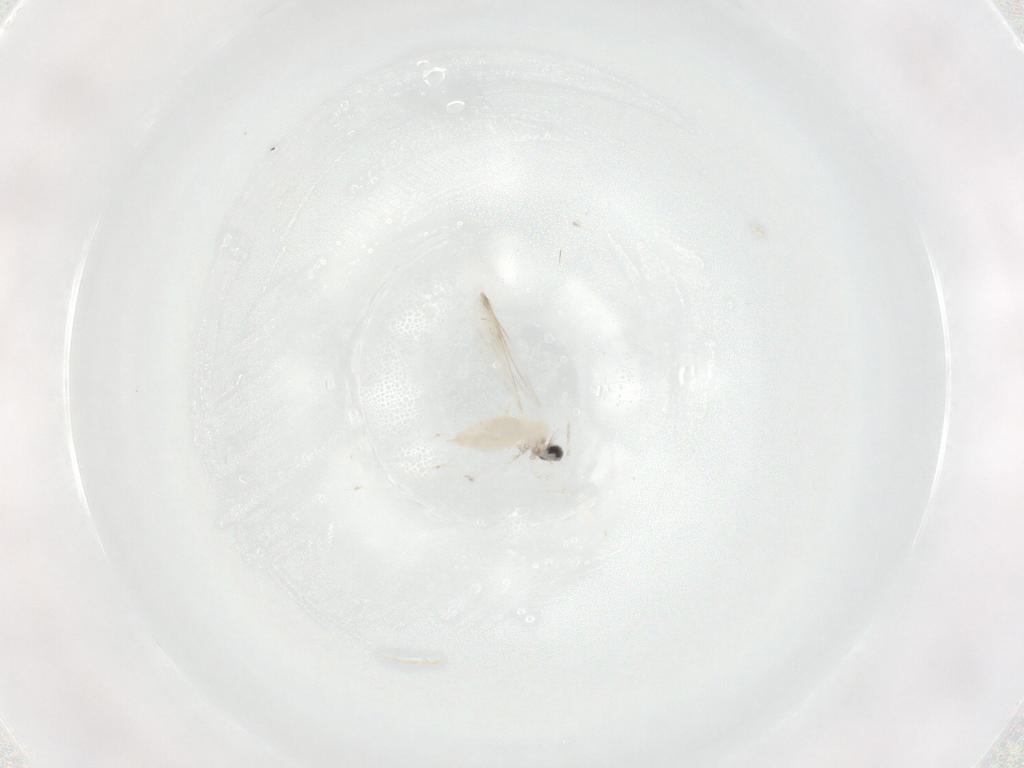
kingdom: Animalia
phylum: Arthropoda
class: Insecta
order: Diptera
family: Cecidomyiidae
